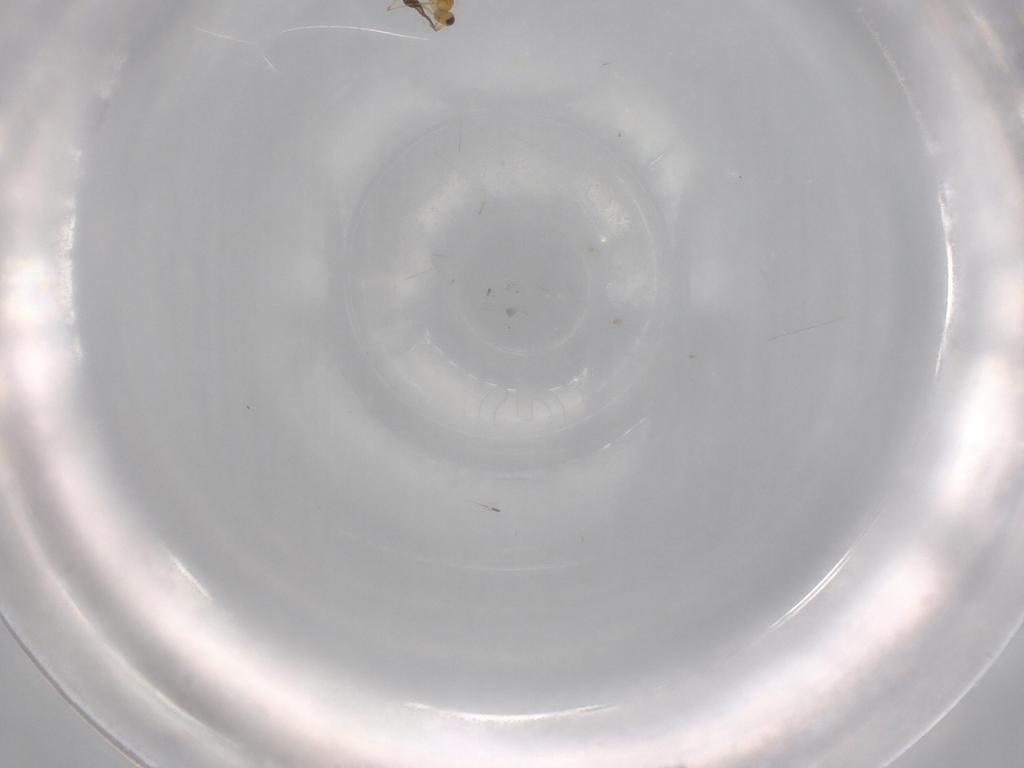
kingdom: Animalia
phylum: Arthropoda
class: Insecta
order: Hymenoptera
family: Mymaridae
